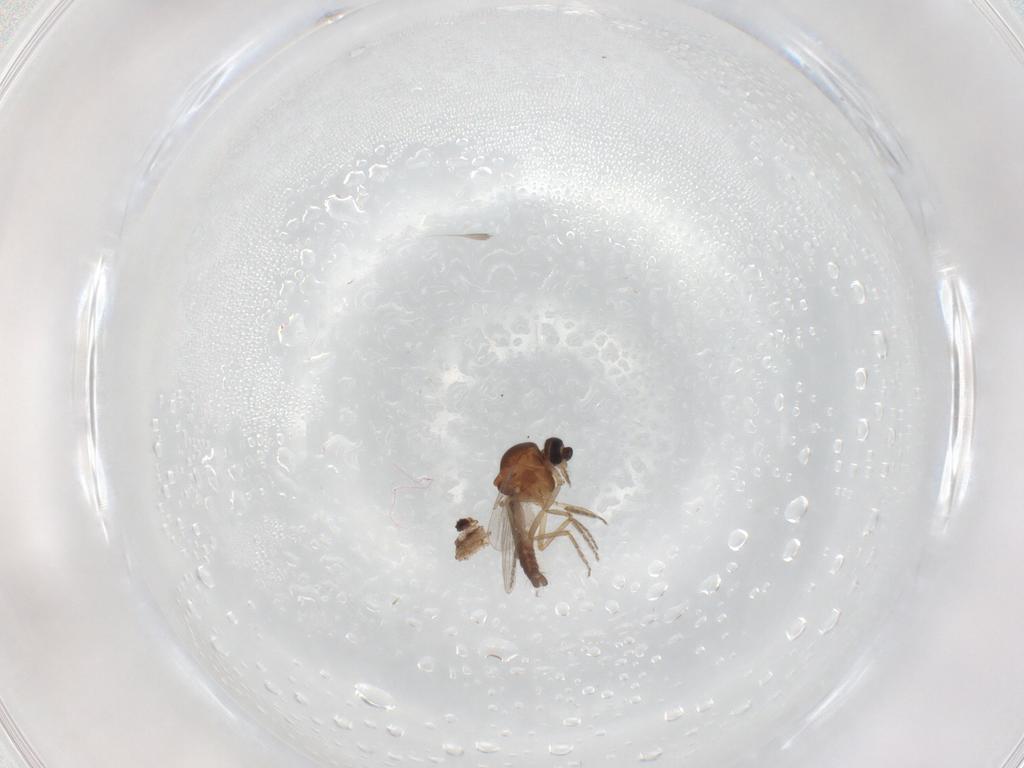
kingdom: Animalia
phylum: Arthropoda
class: Insecta
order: Diptera
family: Ceratopogonidae
